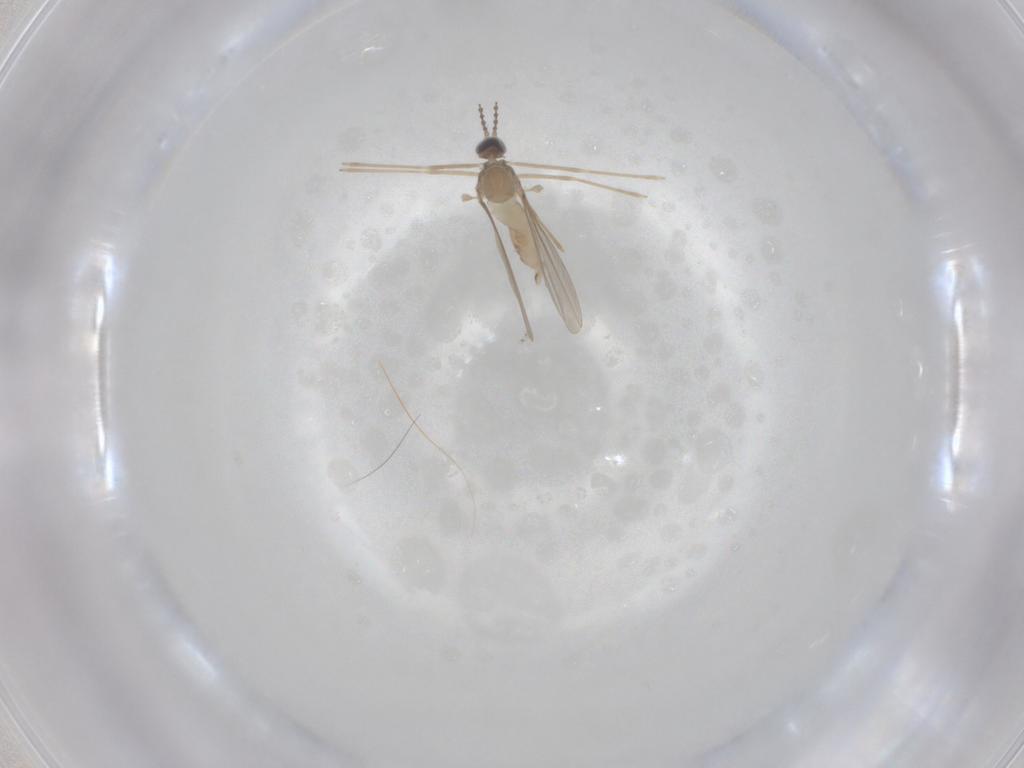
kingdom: Animalia
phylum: Arthropoda
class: Insecta
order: Diptera
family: Cecidomyiidae
